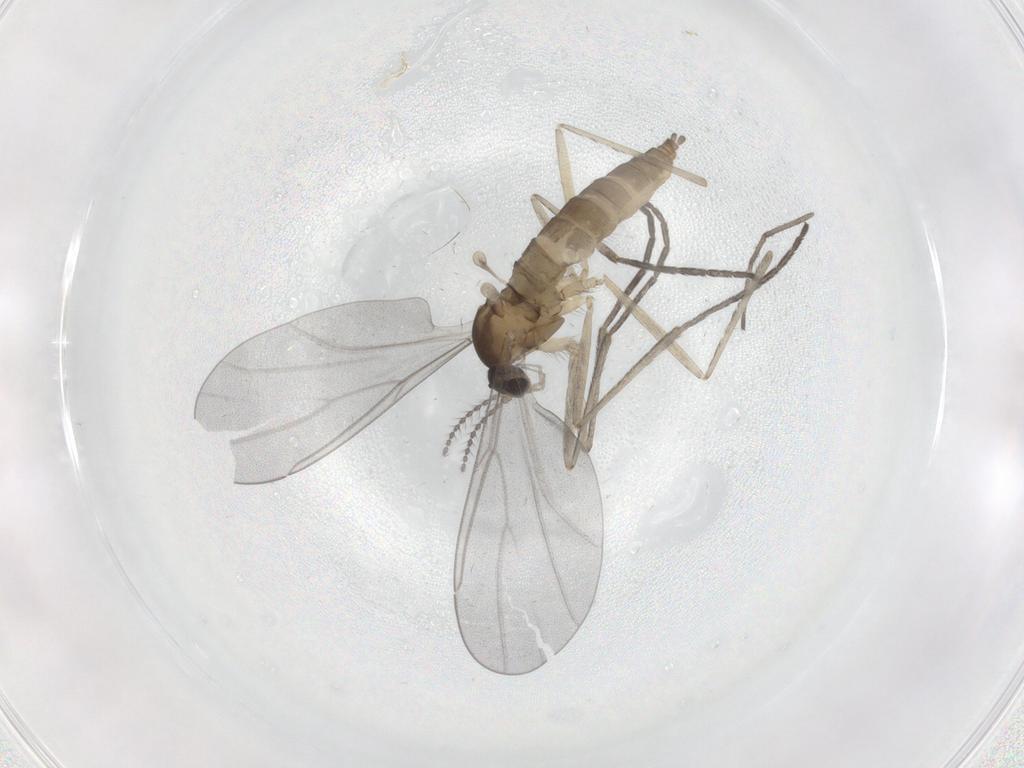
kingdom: Animalia
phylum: Arthropoda
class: Insecta
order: Diptera
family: Cecidomyiidae
